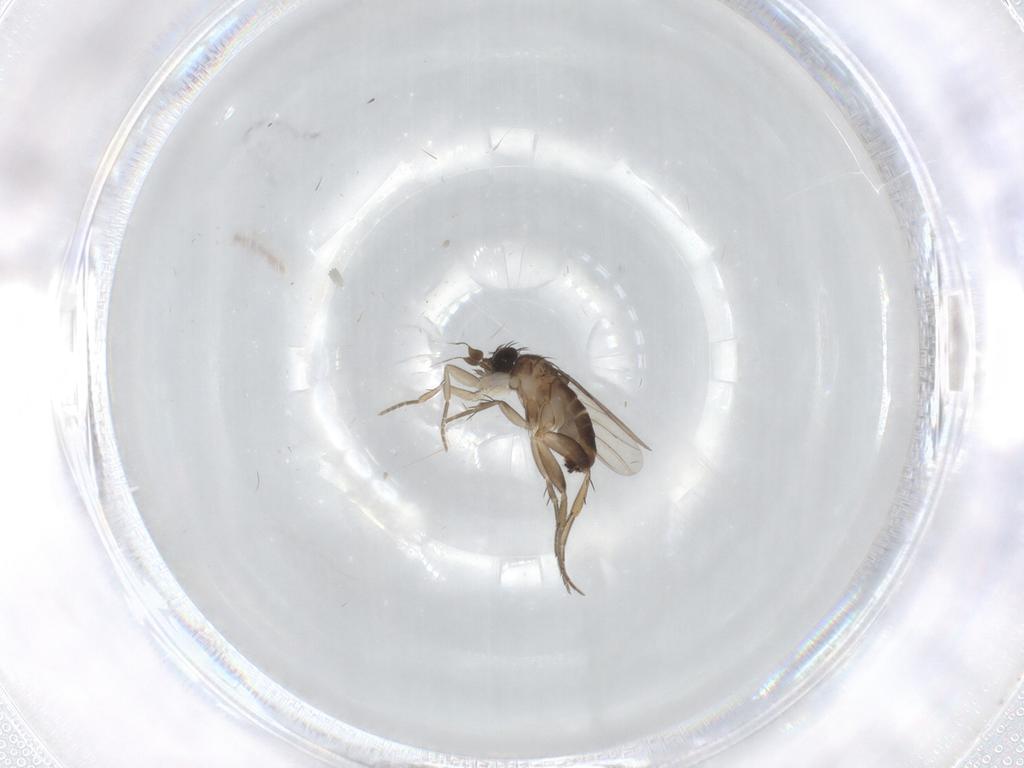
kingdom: Animalia
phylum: Arthropoda
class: Insecta
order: Diptera
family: Phoridae
